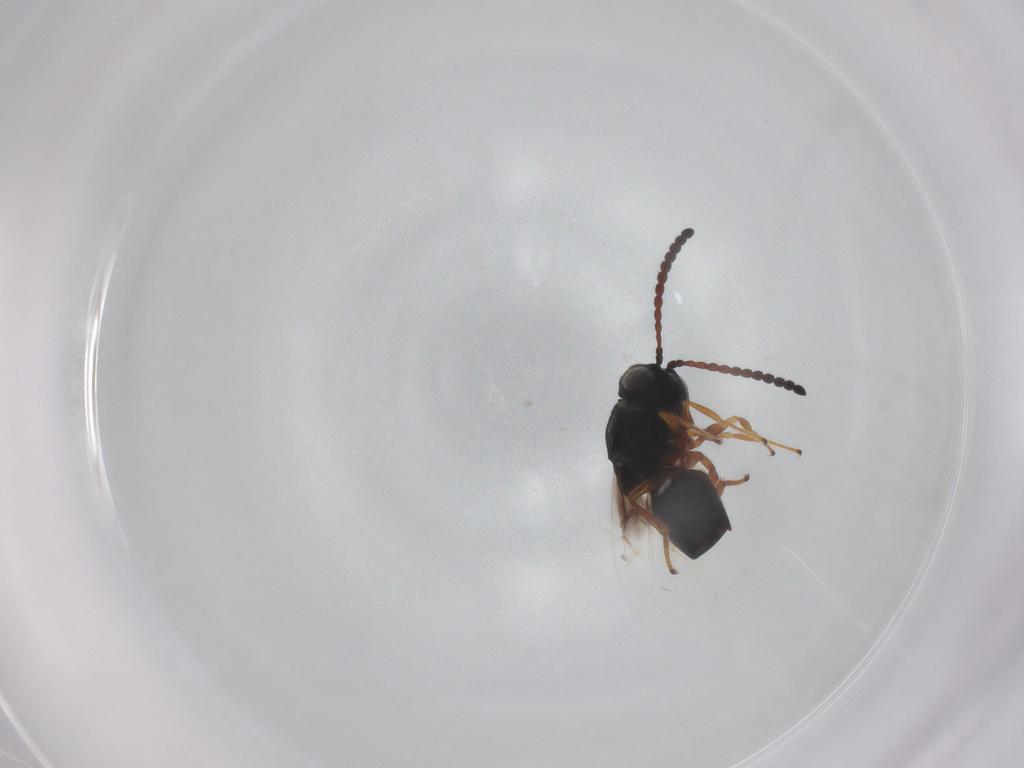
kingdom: Animalia
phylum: Arthropoda
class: Insecta
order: Hymenoptera
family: Figitidae
